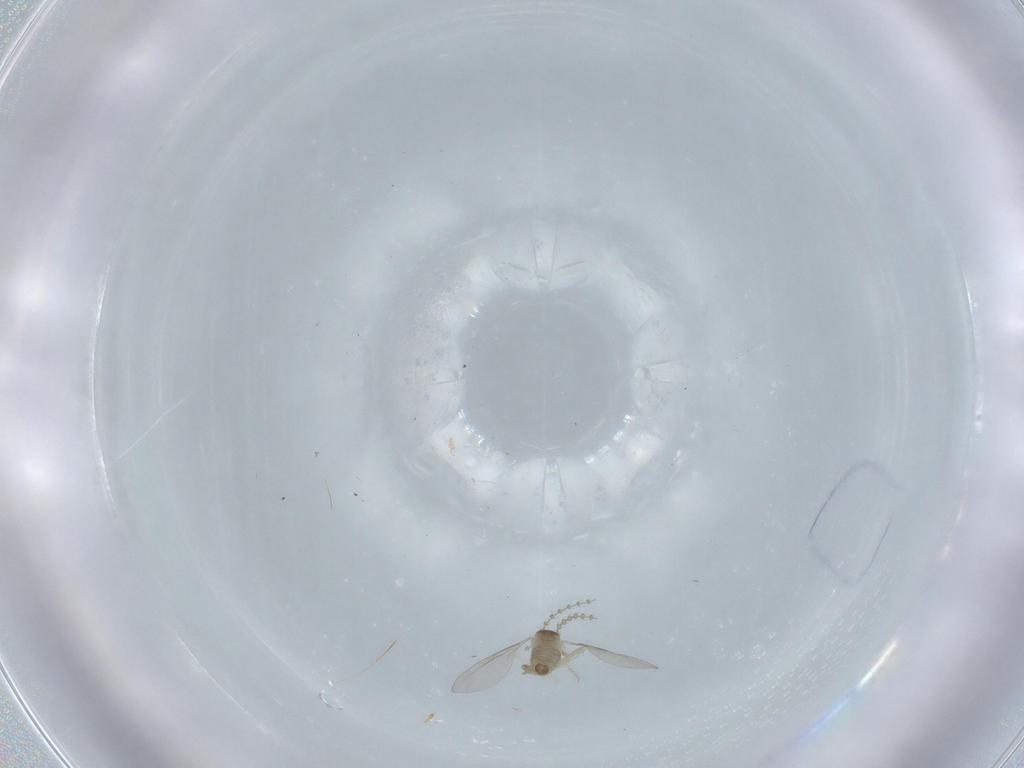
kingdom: Animalia
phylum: Arthropoda
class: Insecta
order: Diptera
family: Cecidomyiidae
